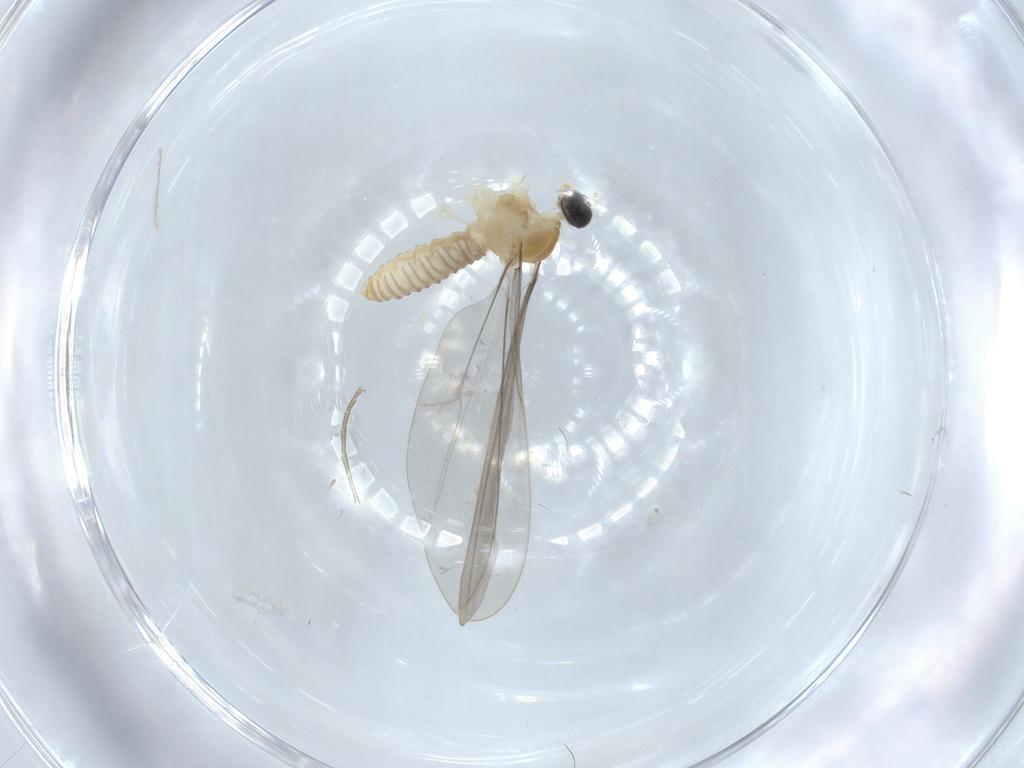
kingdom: Animalia
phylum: Arthropoda
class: Insecta
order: Diptera
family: Cecidomyiidae
